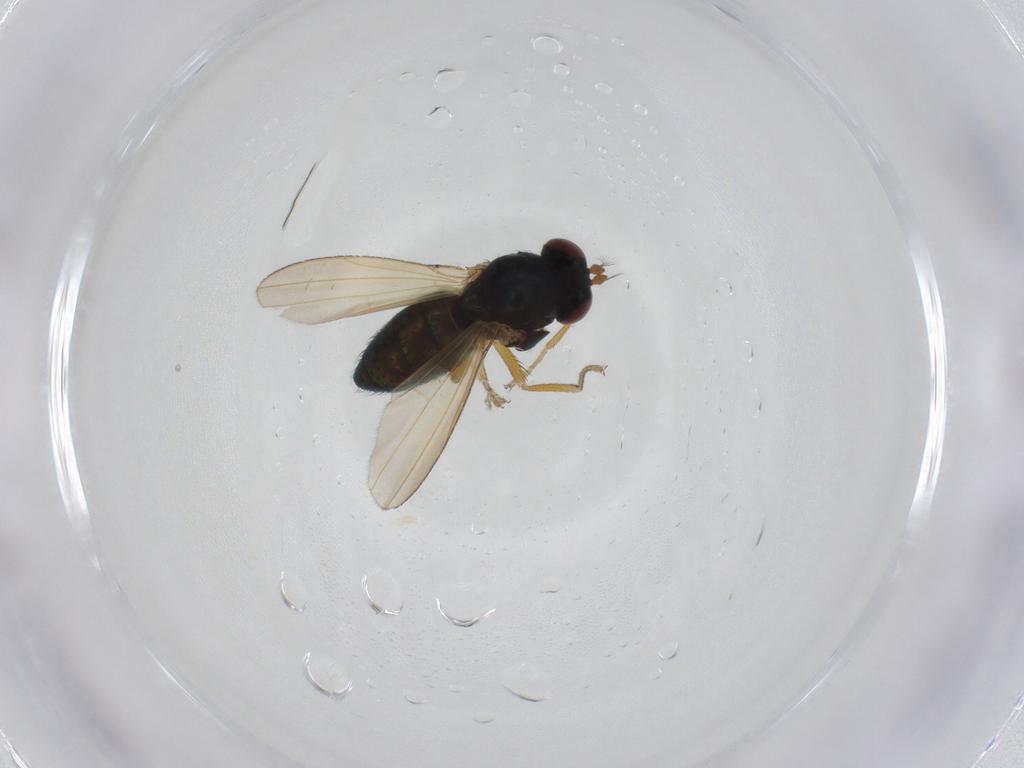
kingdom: Animalia
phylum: Arthropoda
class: Insecta
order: Diptera
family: Ephydridae
